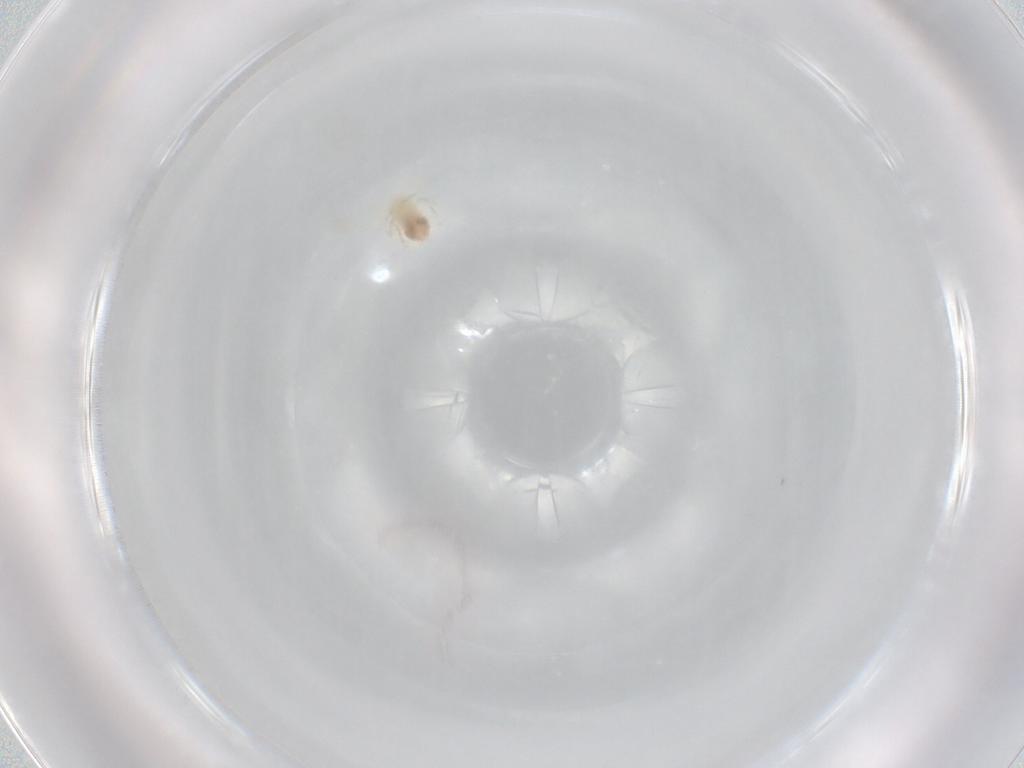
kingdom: Animalia
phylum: Arthropoda
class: Arachnida
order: Trombidiformes
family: Anystidae
